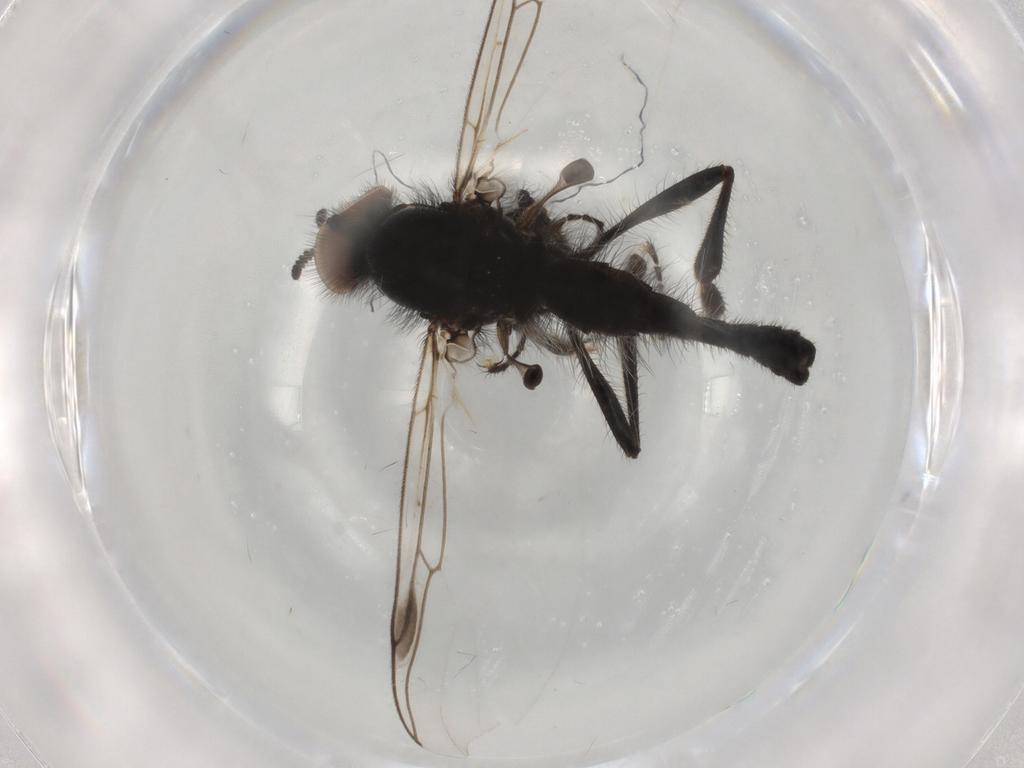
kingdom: Animalia
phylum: Arthropoda
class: Insecta
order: Diptera
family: Bibionidae
